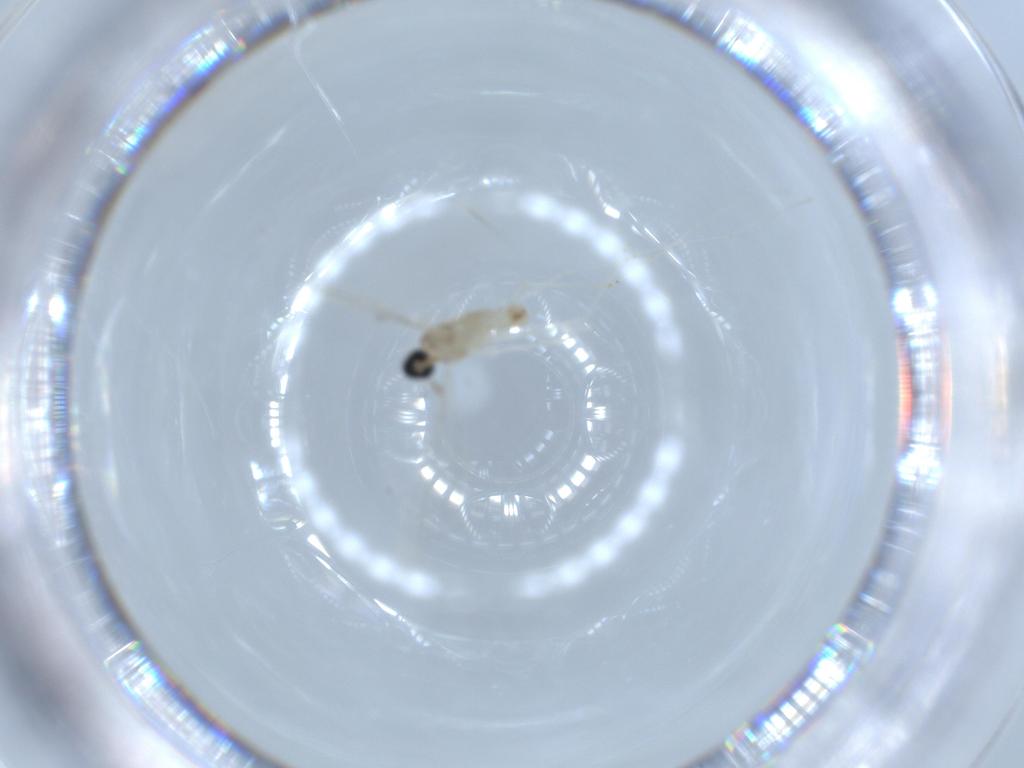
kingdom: Animalia
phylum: Arthropoda
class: Insecta
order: Diptera
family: Cecidomyiidae
